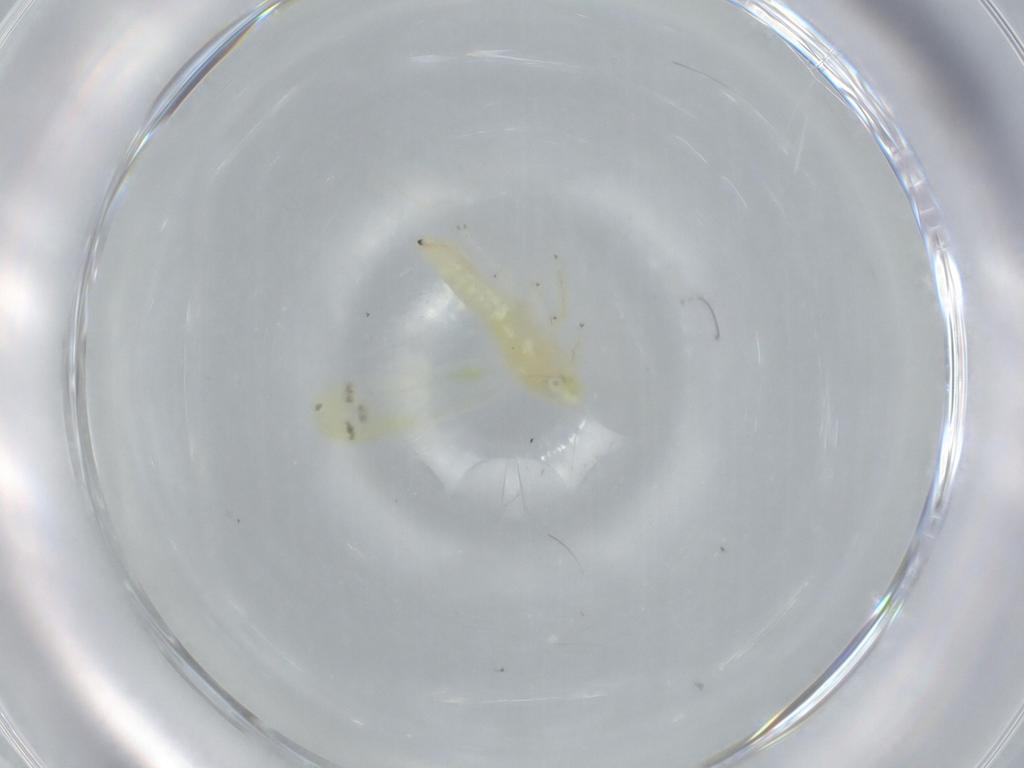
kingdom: Animalia
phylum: Arthropoda
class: Insecta
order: Hemiptera
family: Cicadellidae
